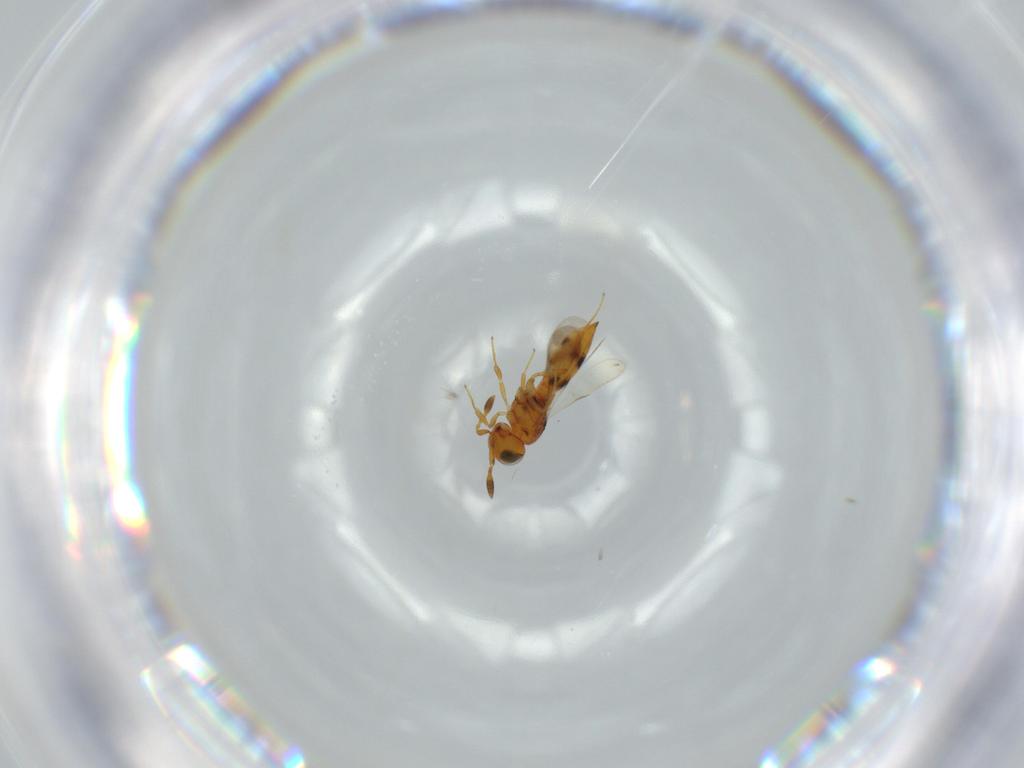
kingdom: Animalia
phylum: Arthropoda
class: Insecta
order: Hymenoptera
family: Scelionidae
